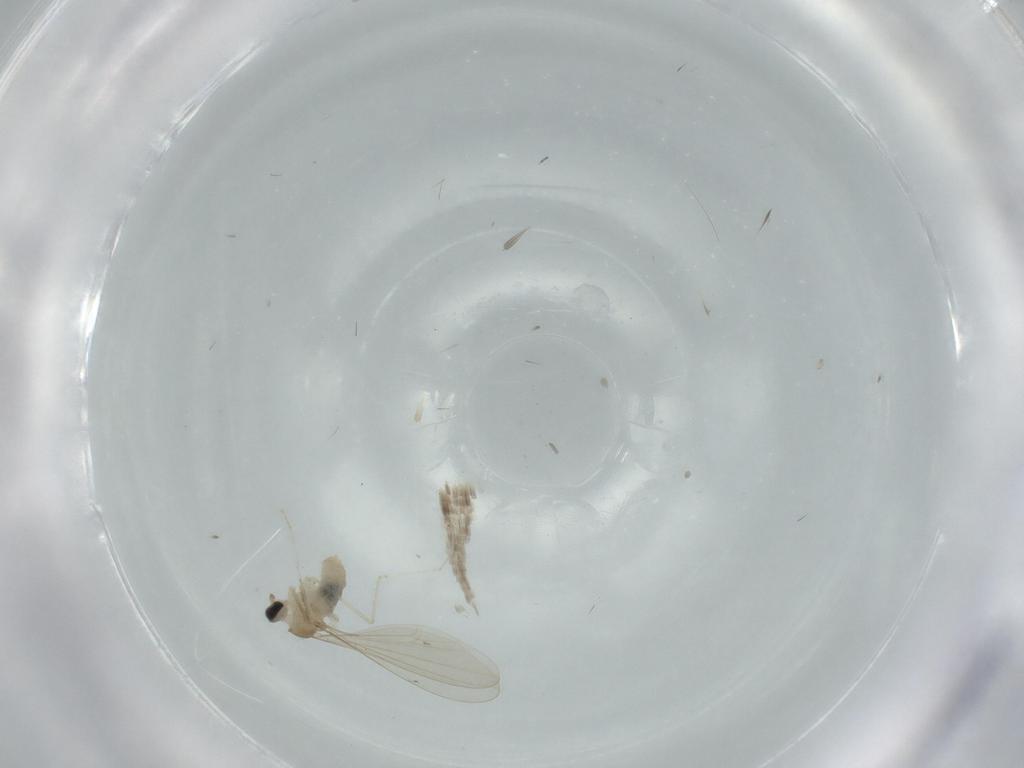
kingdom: Animalia
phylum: Arthropoda
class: Insecta
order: Diptera
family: Cecidomyiidae
